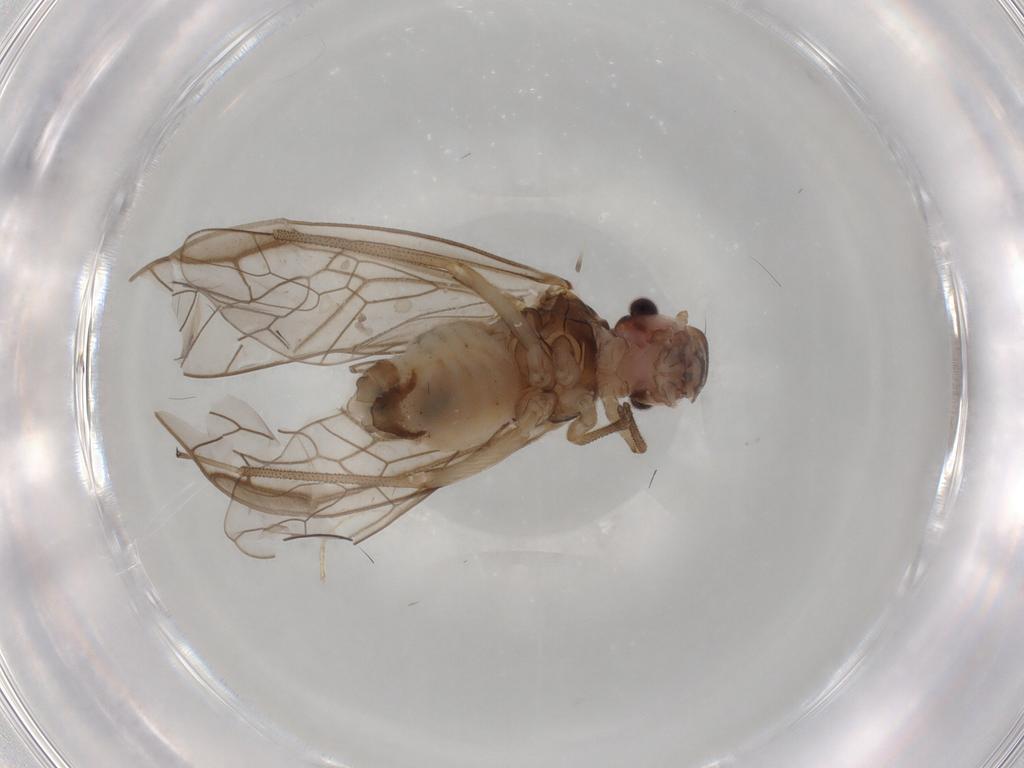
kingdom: Animalia
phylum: Arthropoda
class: Insecta
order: Psocodea
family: Stenopsocidae
